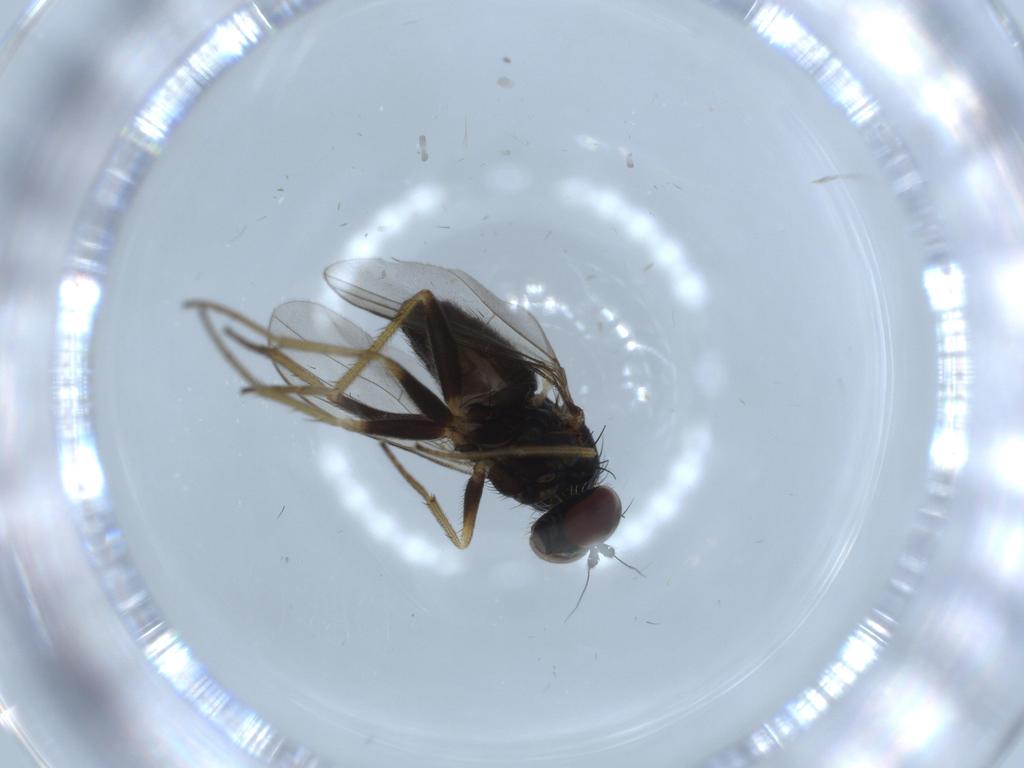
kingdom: Animalia
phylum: Arthropoda
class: Insecta
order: Diptera
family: Dolichopodidae
